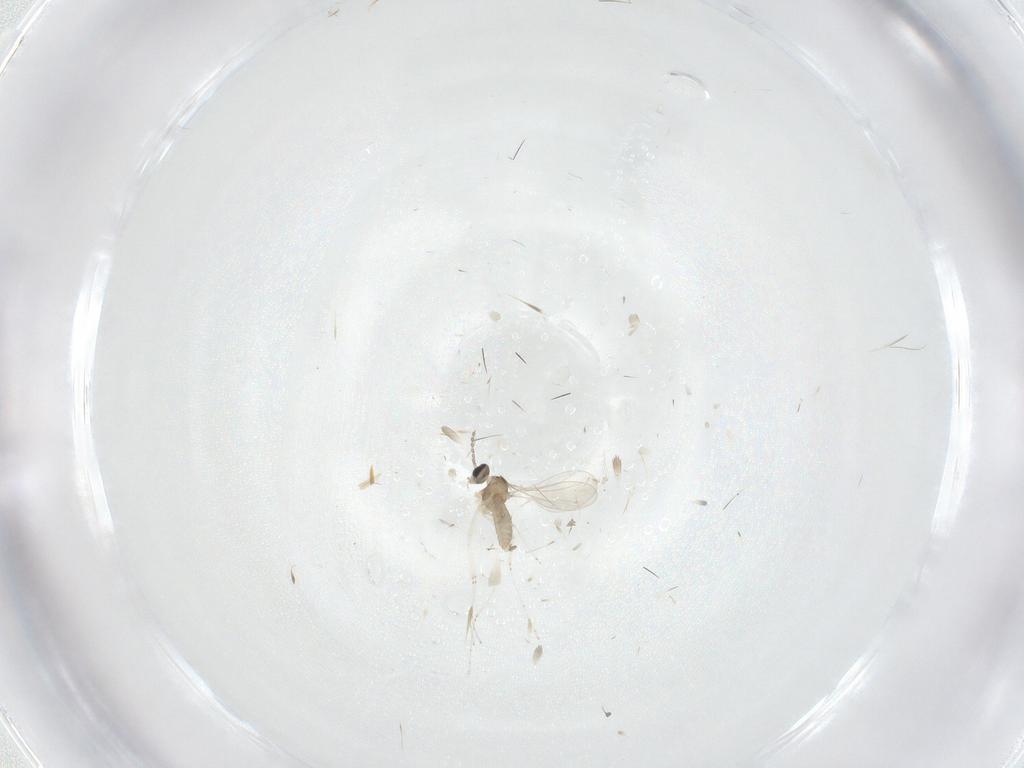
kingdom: Animalia
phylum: Arthropoda
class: Insecta
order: Diptera
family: Cecidomyiidae
